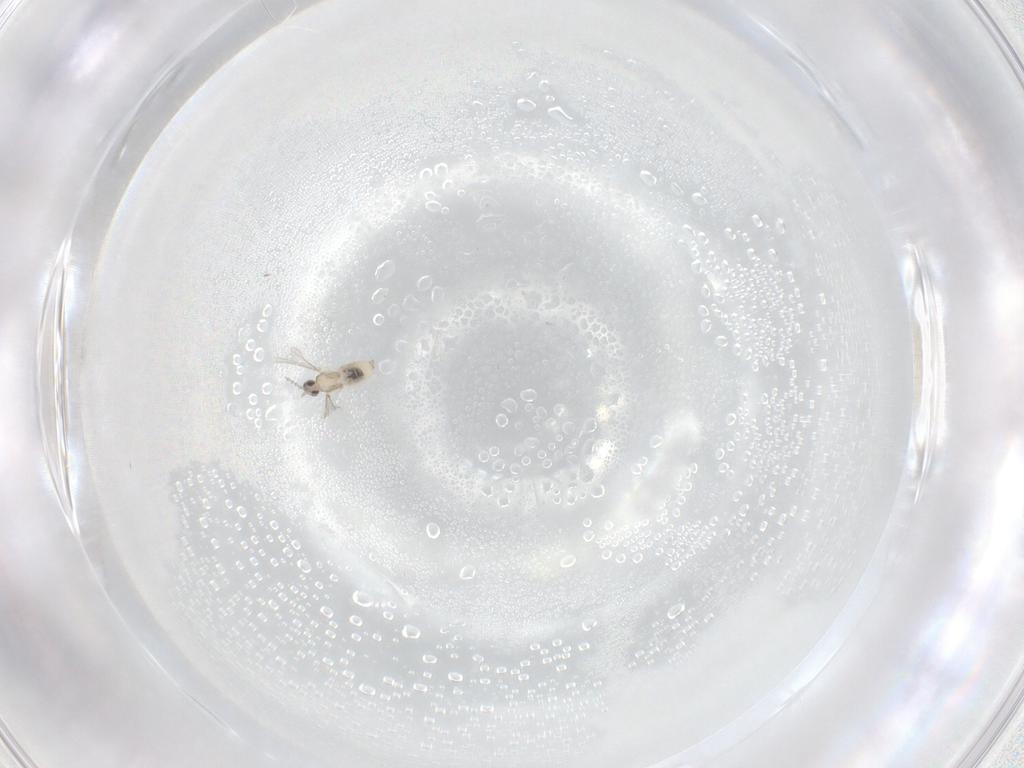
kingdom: Animalia
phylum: Arthropoda
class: Insecta
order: Diptera
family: Cecidomyiidae
